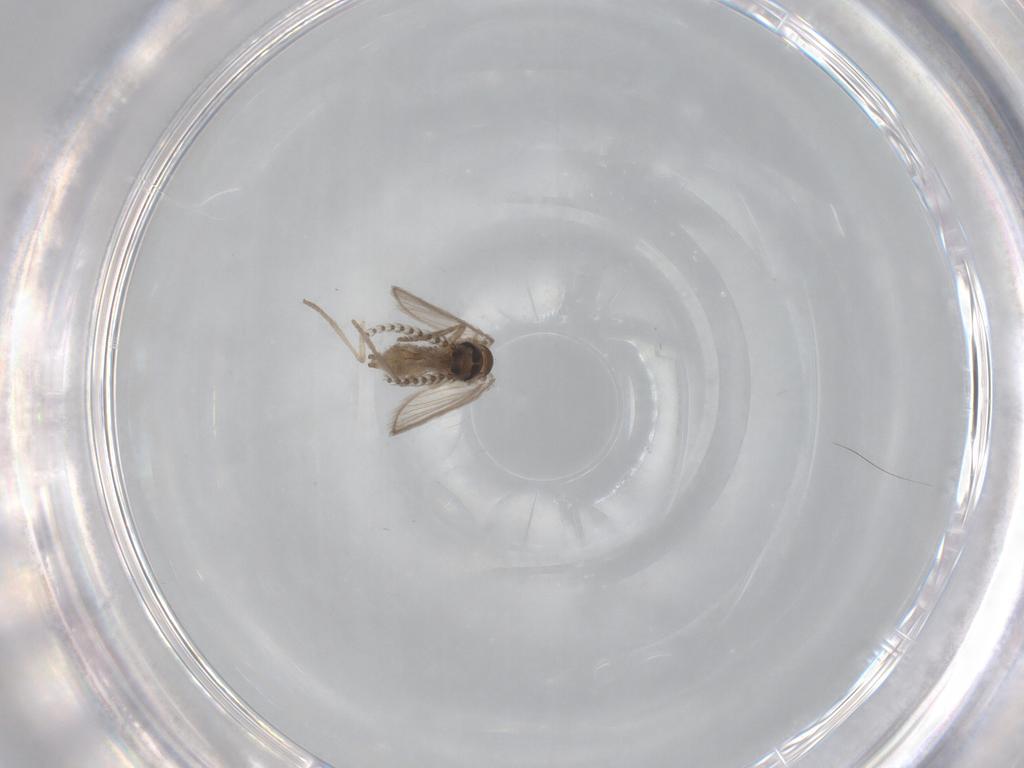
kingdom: Animalia
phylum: Arthropoda
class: Insecta
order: Diptera
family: Psychodidae
